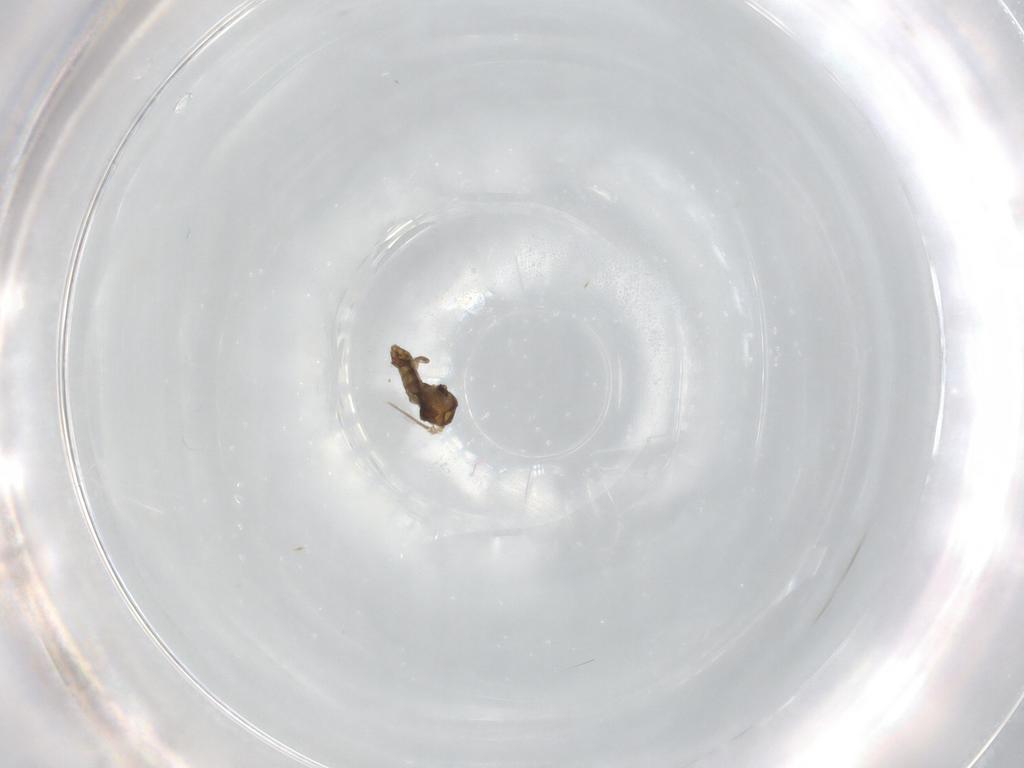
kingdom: Animalia
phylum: Arthropoda
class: Insecta
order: Diptera
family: Chironomidae
